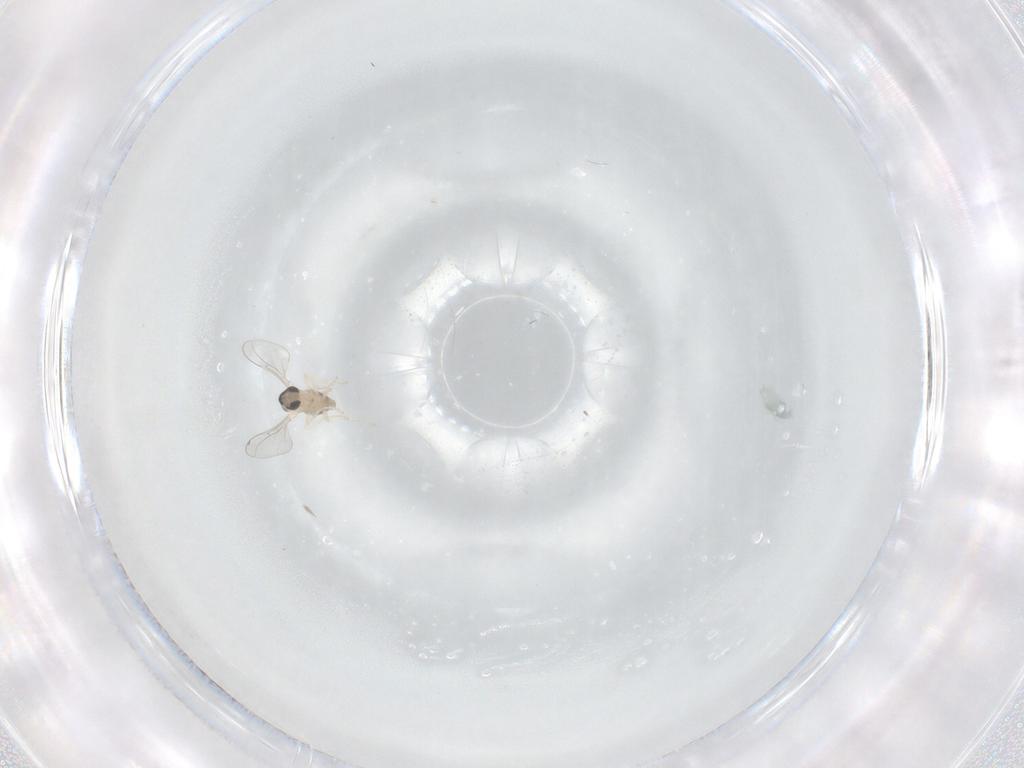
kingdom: Animalia
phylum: Arthropoda
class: Insecta
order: Diptera
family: Cecidomyiidae
